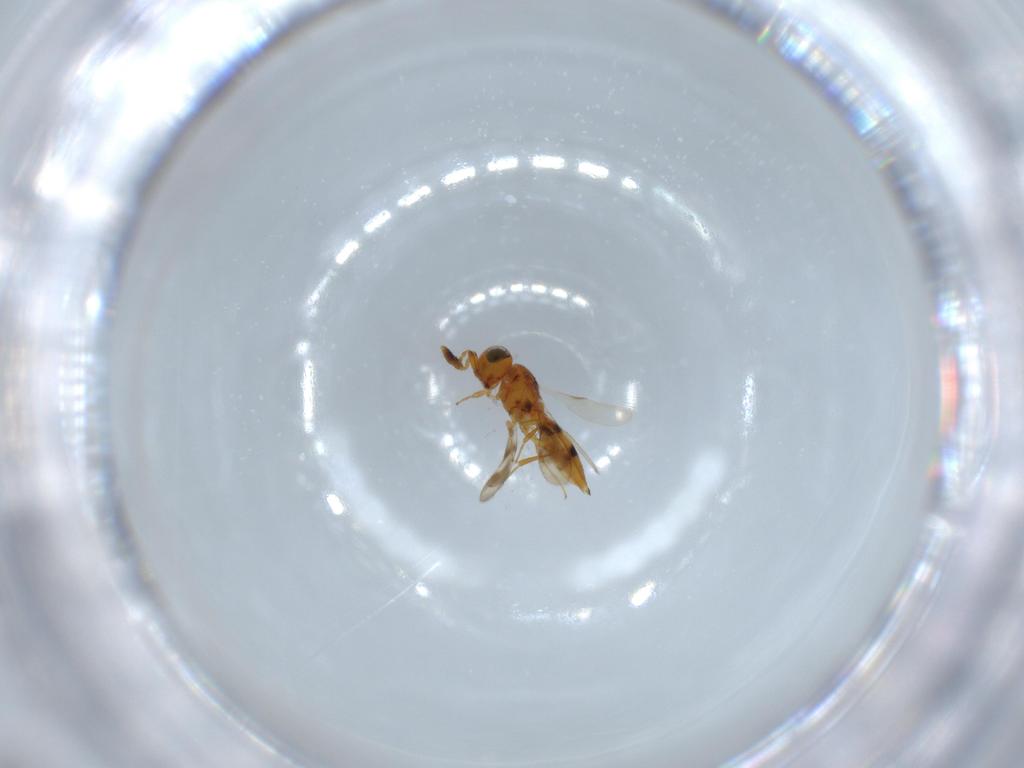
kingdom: Animalia
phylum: Arthropoda
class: Insecta
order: Hymenoptera
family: Scelionidae
